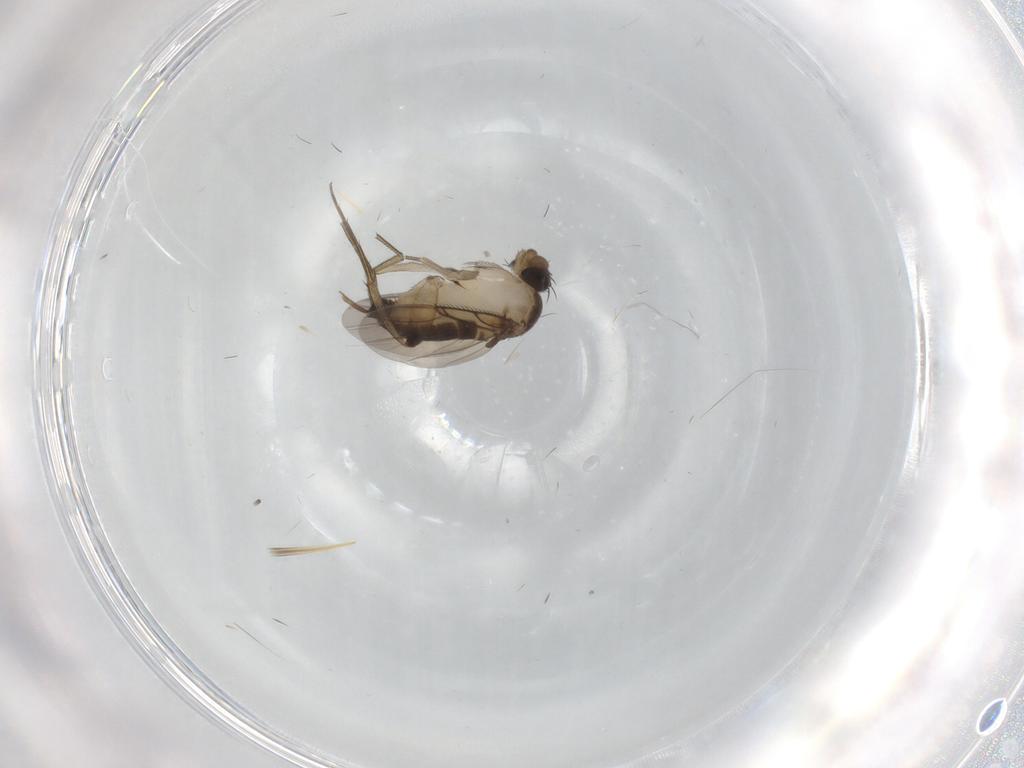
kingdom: Animalia
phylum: Arthropoda
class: Insecta
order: Diptera
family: Phoridae
